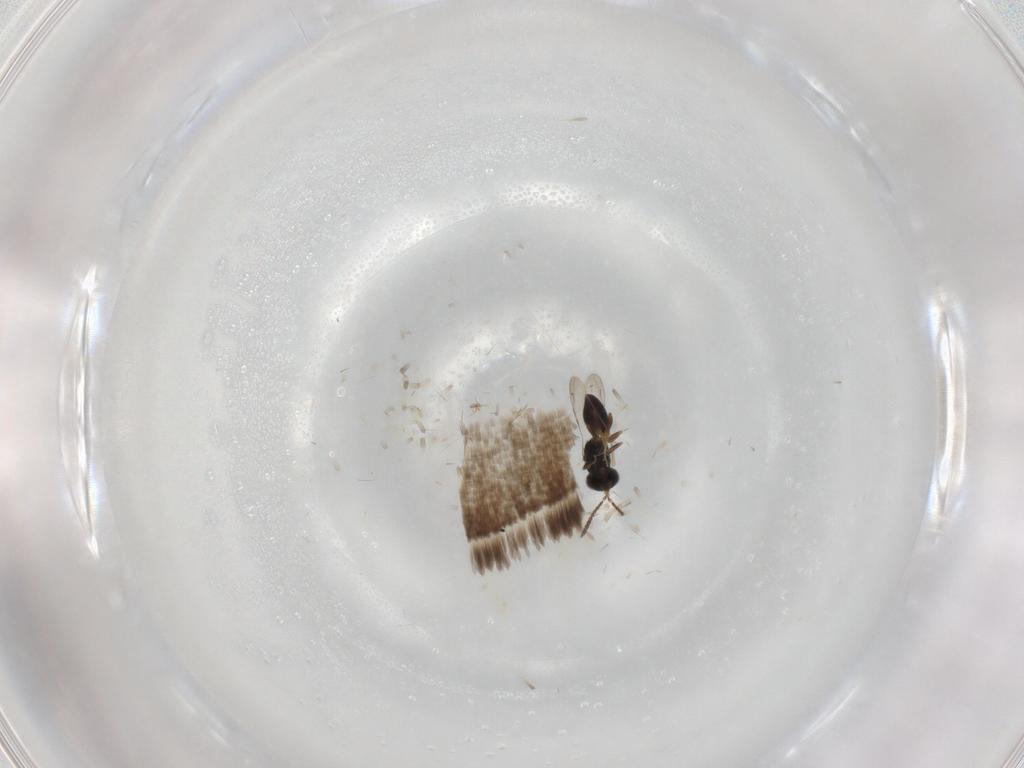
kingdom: Animalia
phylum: Arthropoda
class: Insecta
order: Hymenoptera
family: Ceraphronidae
